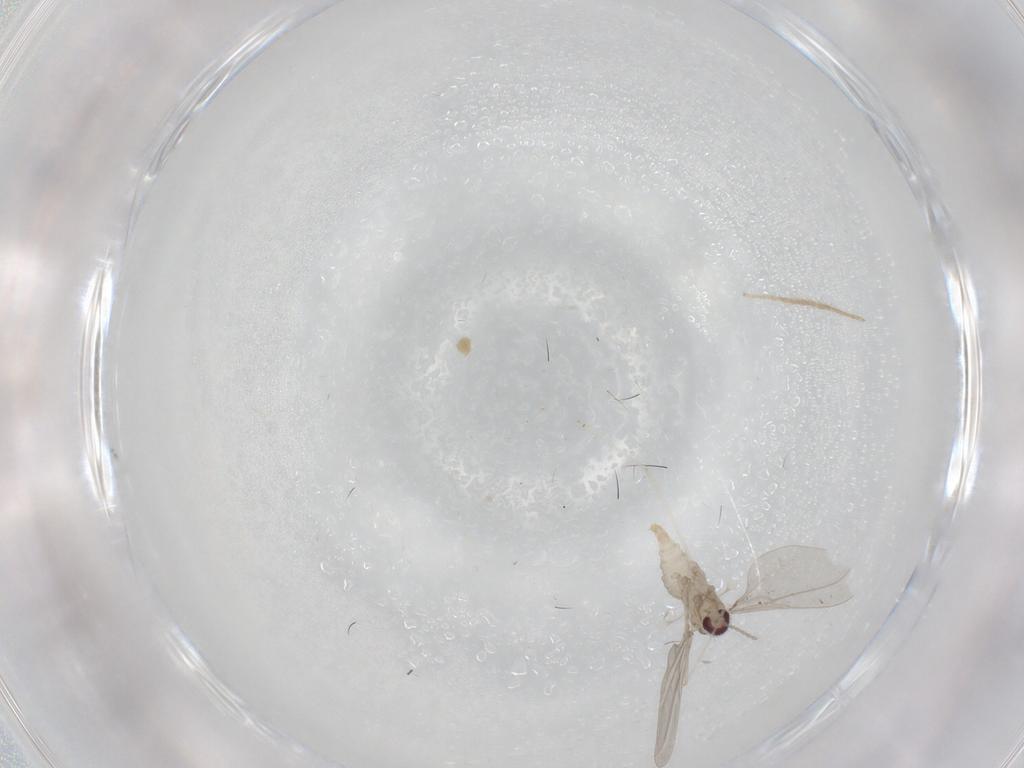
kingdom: Animalia
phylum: Arthropoda
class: Insecta
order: Diptera
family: Cecidomyiidae
